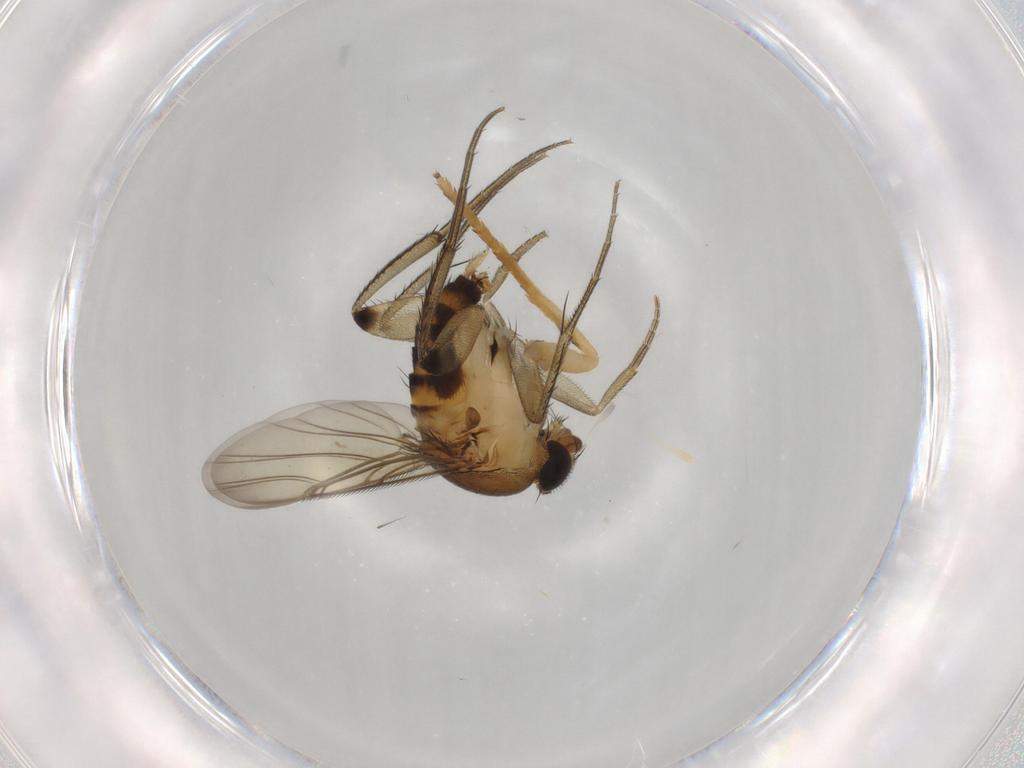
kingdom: Animalia
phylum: Arthropoda
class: Insecta
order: Diptera
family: Phoridae
